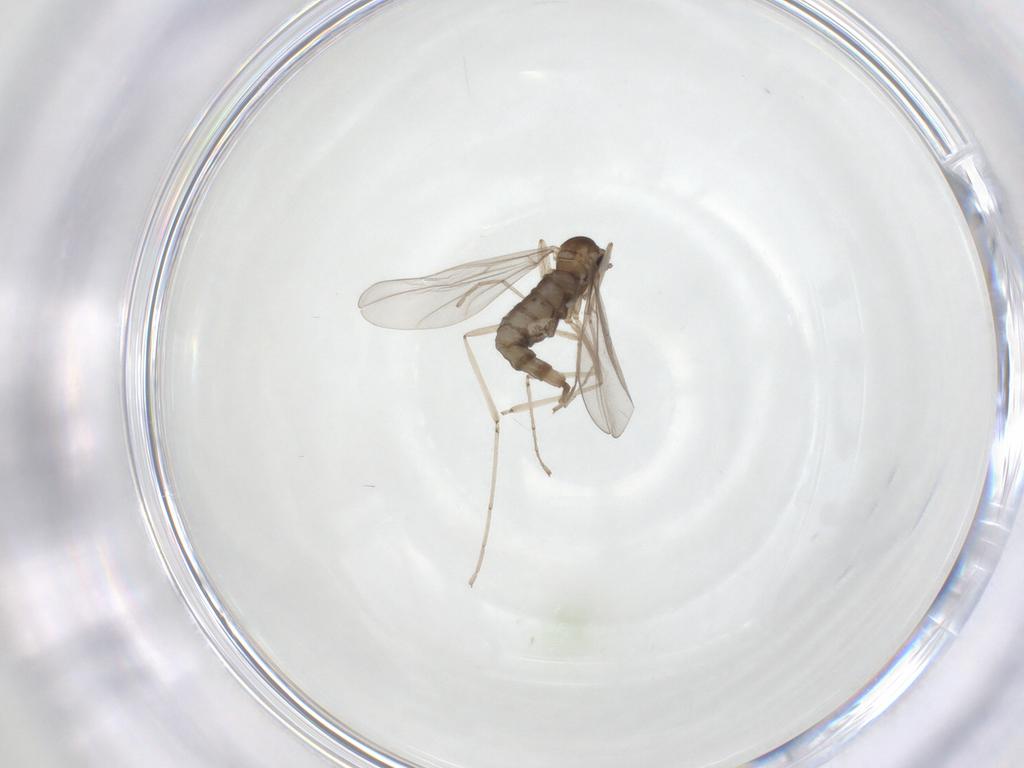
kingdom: Animalia
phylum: Arthropoda
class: Insecta
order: Diptera
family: Cecidomyiidae
